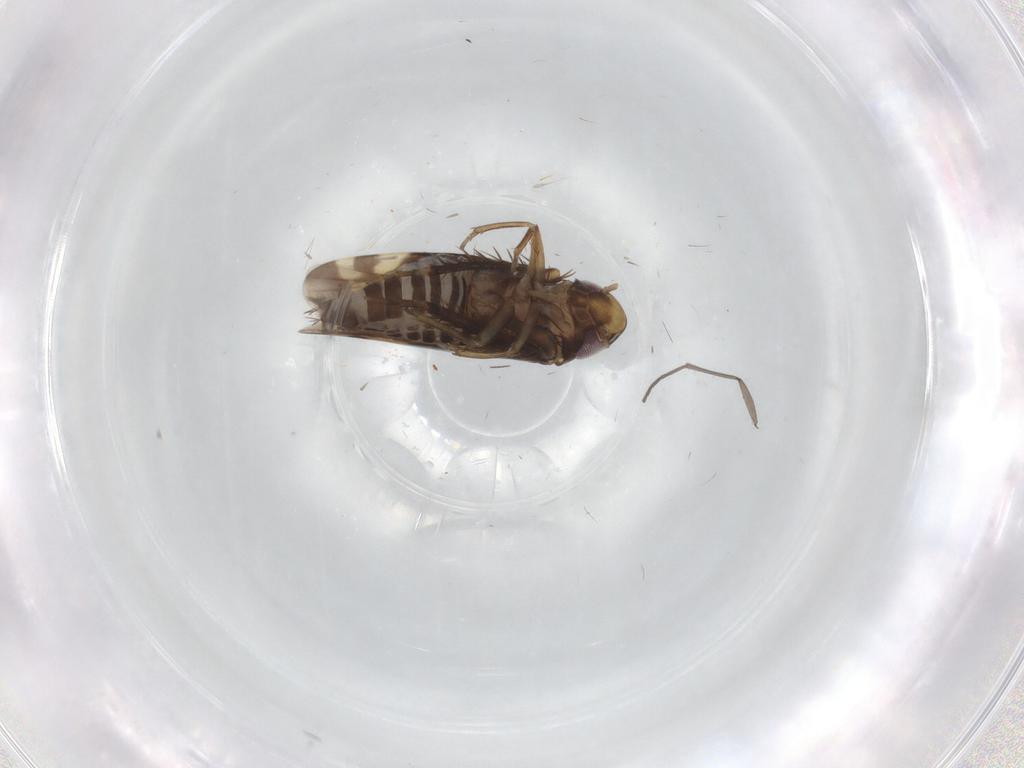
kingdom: Animalia
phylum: Arthropoda
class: Insecta
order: Hemiptera
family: Cicadellidae
